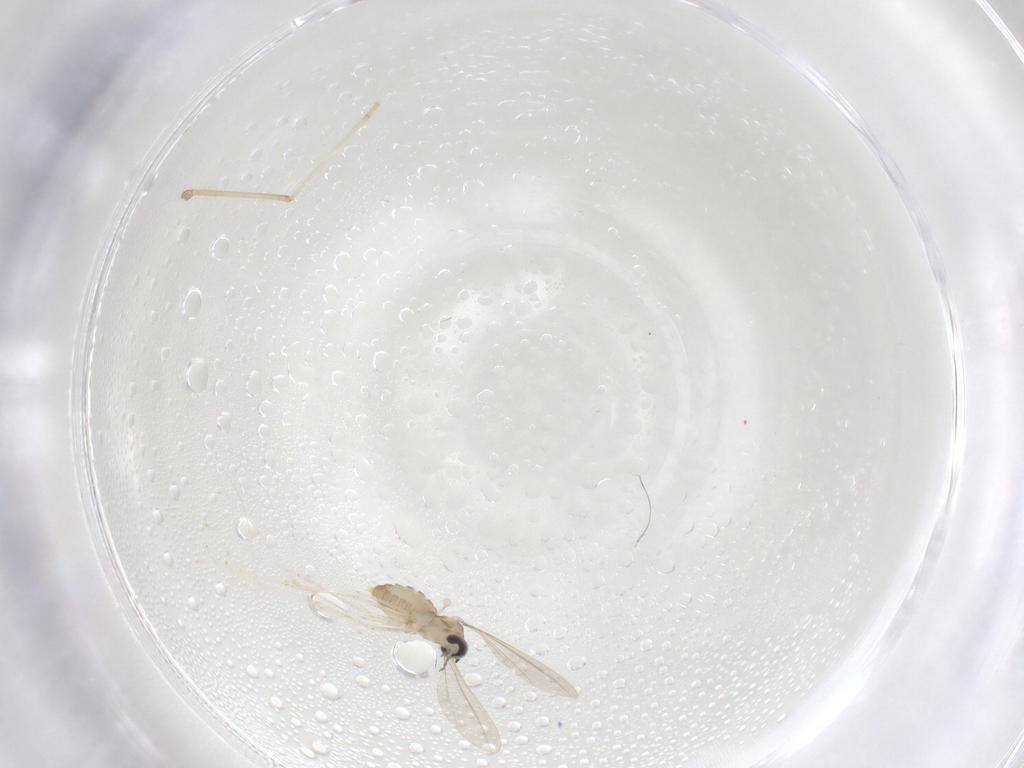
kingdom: Animalia
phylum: Arthropoda
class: Insecta
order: Diptera
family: Cecidomyiidae
